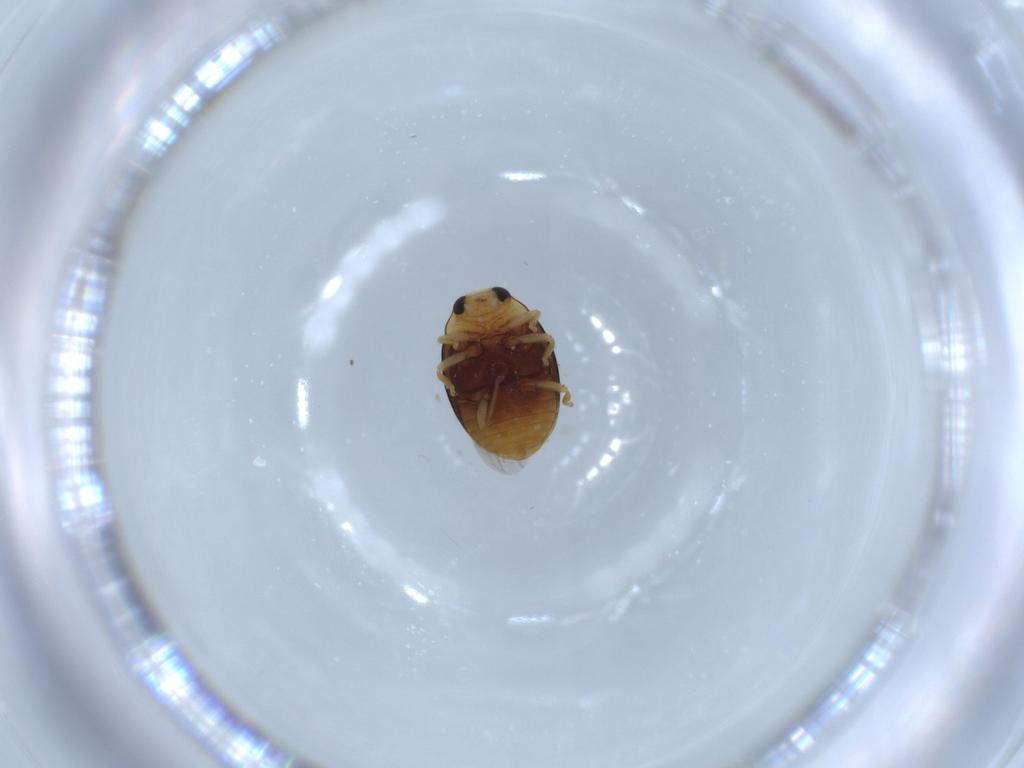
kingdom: Animalia
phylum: Arthropoda
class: Insecta
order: Coleoptera
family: Coccinellidae
